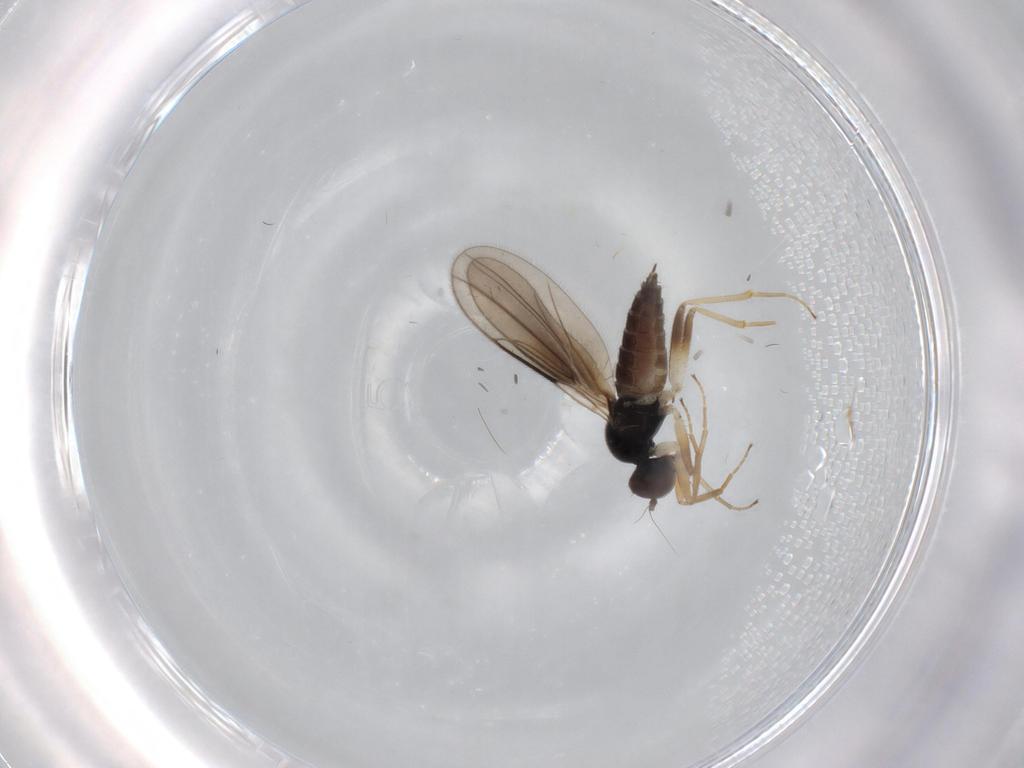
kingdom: Animalia
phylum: Arthropoda
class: Insecta
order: Diptera
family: Hybotidae
